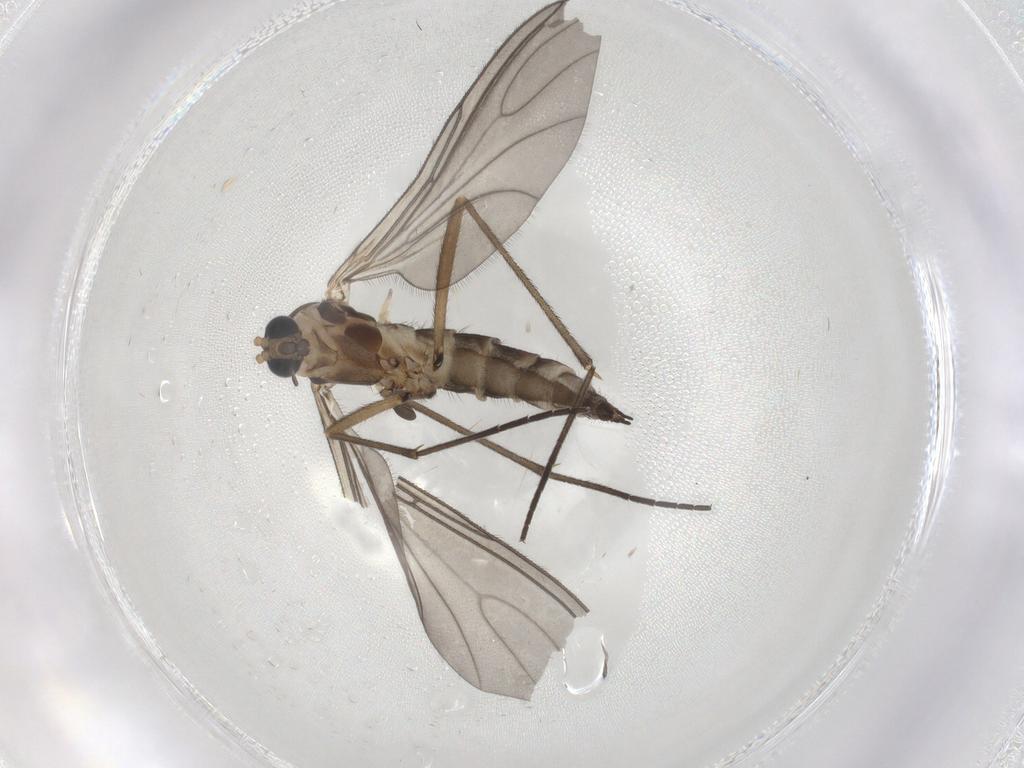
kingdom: Animalia
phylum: Arthropoda
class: Insecta
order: Diptera
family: Sciaridae
